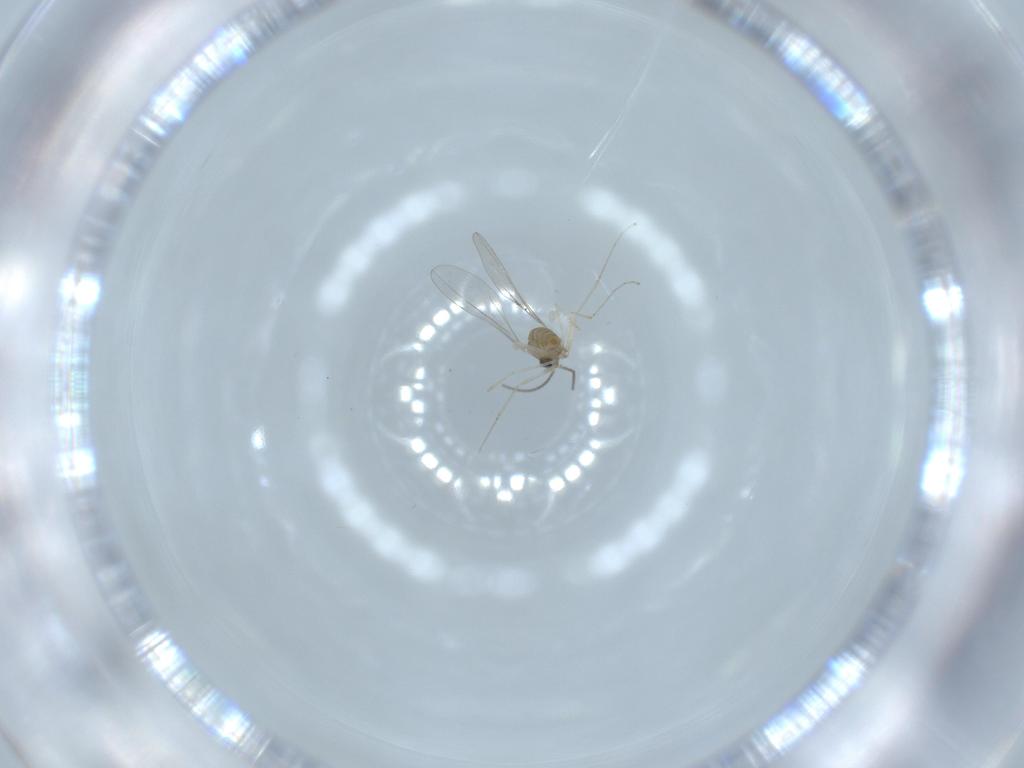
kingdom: Animalia
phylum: Arthropoda
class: Insecta
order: Diptera
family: Mycetophilidae
